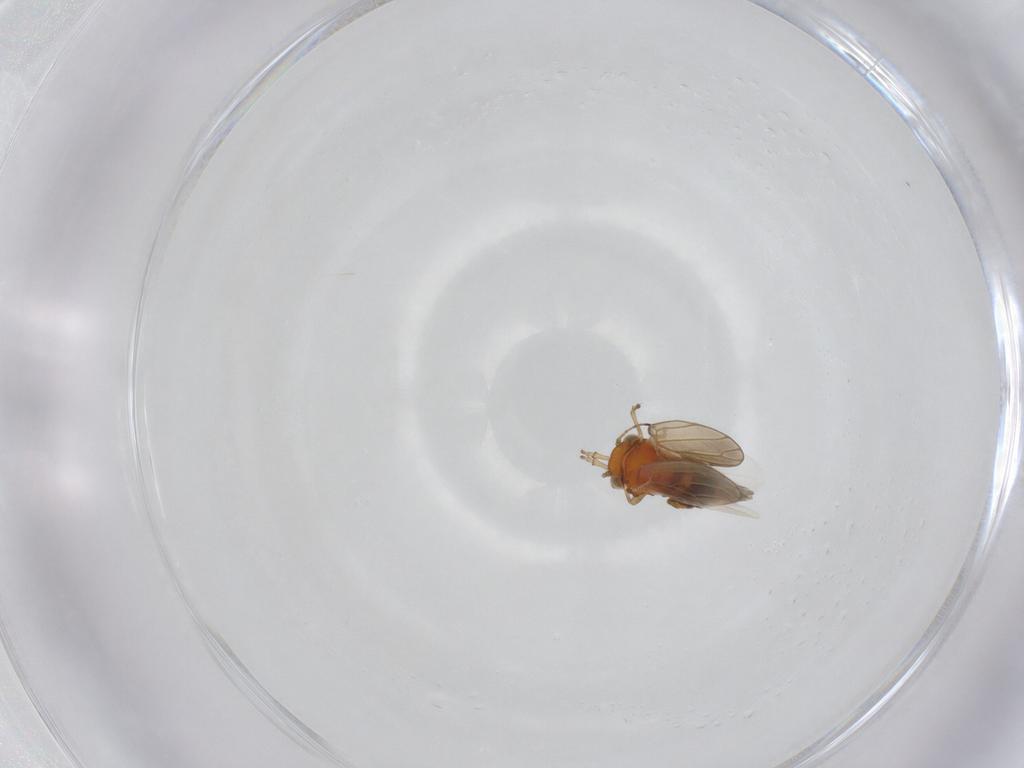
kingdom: Animalia
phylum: Arthropoda
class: Insecta
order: Hemiptera
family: Aphalaridae
